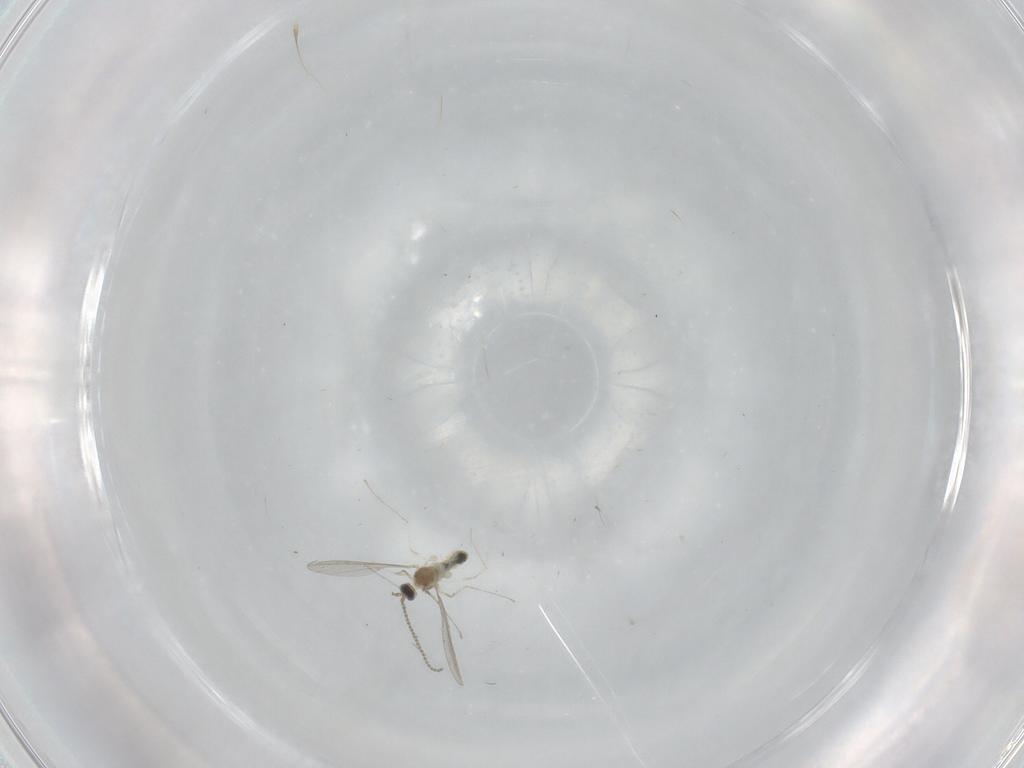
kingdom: Animalia
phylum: Arthropoda
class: Insecta
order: Diptera
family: Cecidomyiidae
